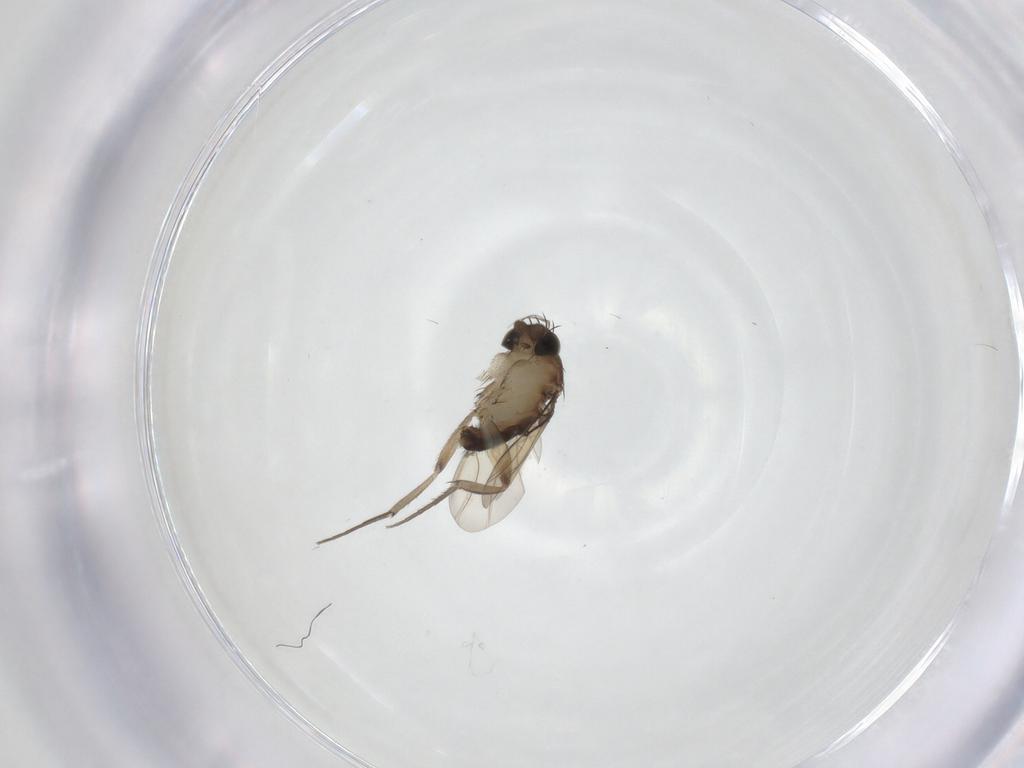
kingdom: Animalia
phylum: Arthropoda
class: Insecta
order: Diptera
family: Phoridae
